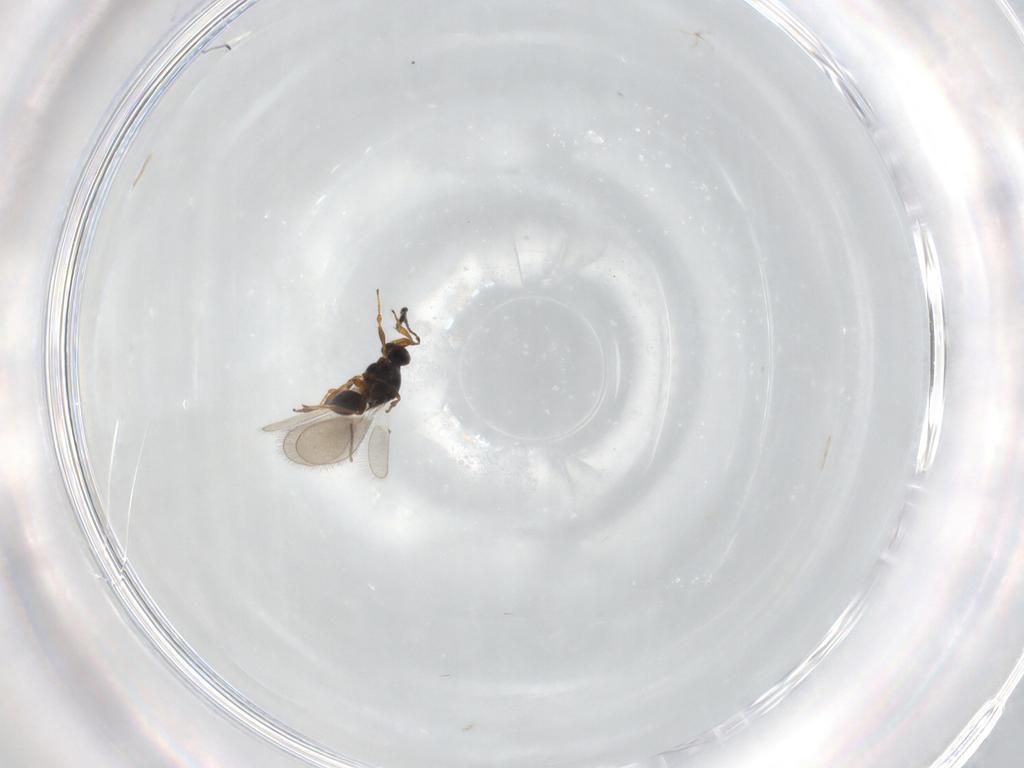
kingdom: Animalia
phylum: Arthropoda
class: Insecta
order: Hymenoptera
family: Platygastridae
